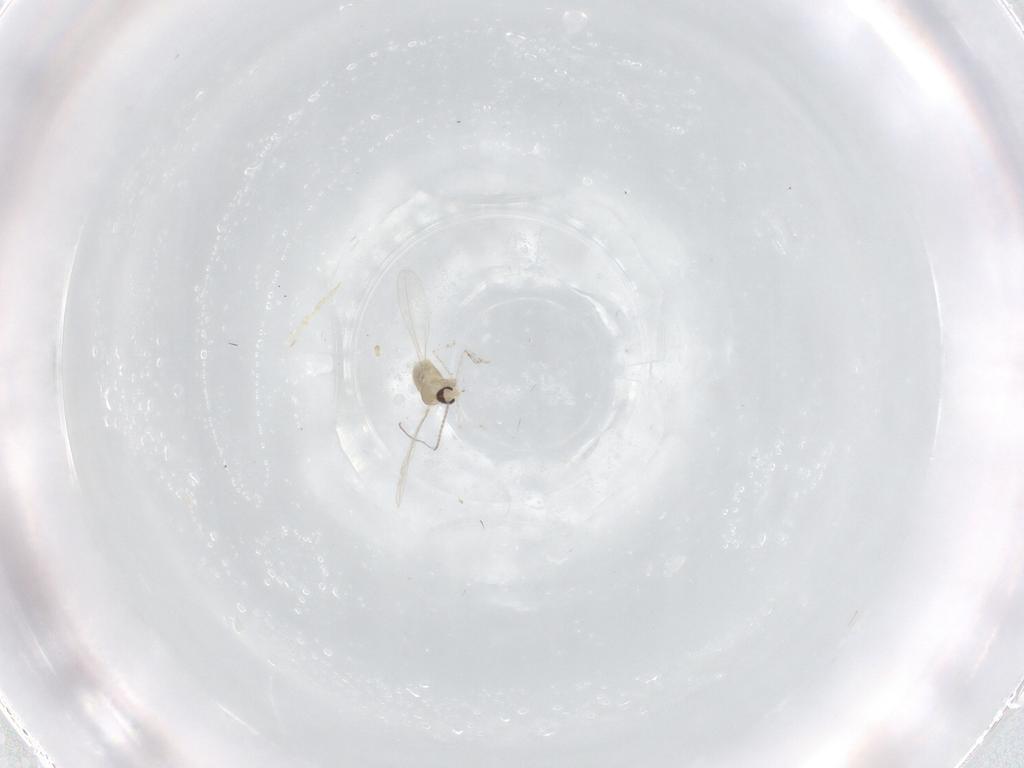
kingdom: Animalia
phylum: Arthropoda
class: Insecta
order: Diptera
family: Cecidomyiidae
